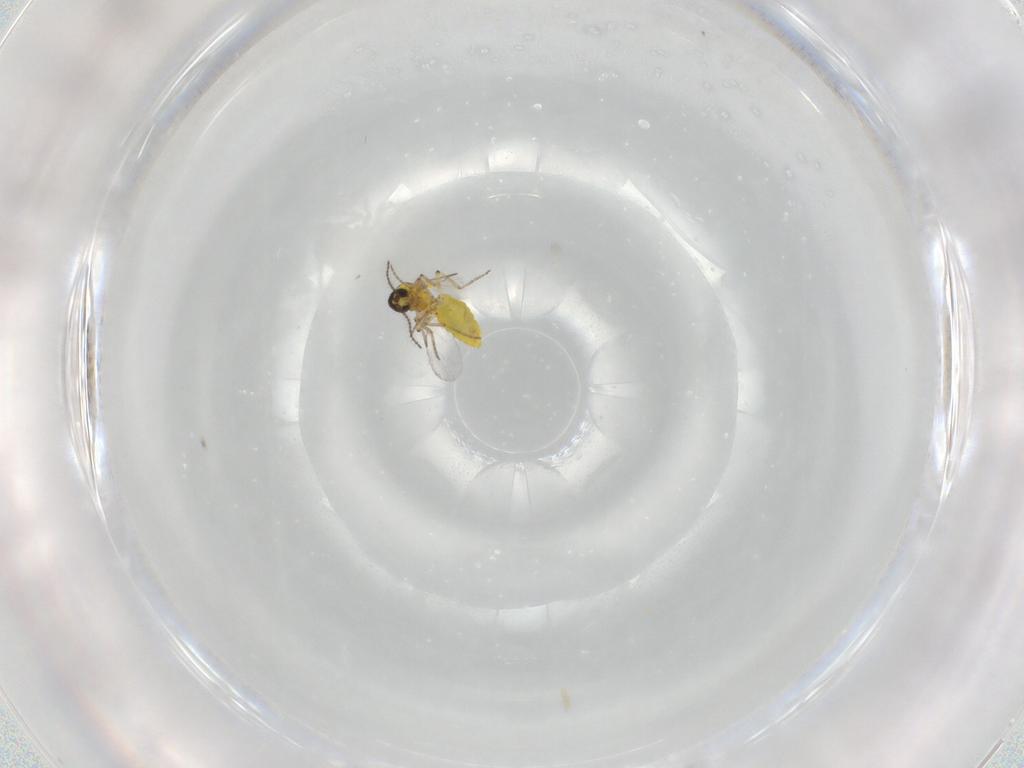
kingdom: Animalia
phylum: Arthropoda
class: Insecta
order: Diptera
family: Ceratopogonidae
